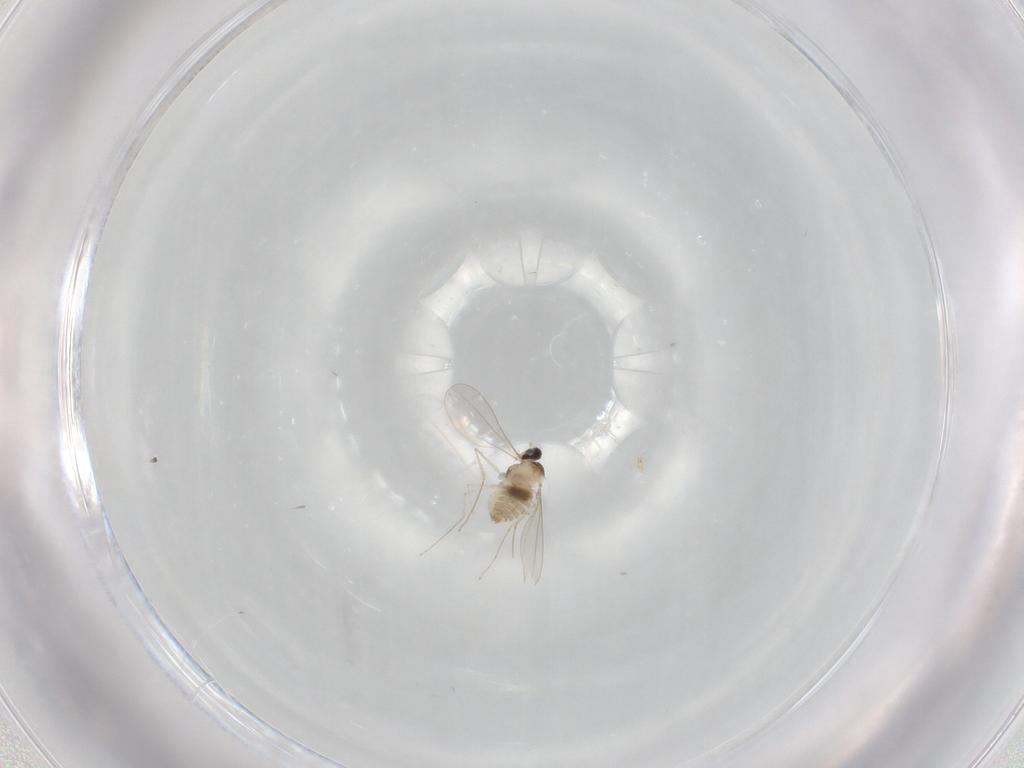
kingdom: Animalia
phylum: Arthropoda
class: Insecta
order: Diptera
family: Cecidomyiidae
